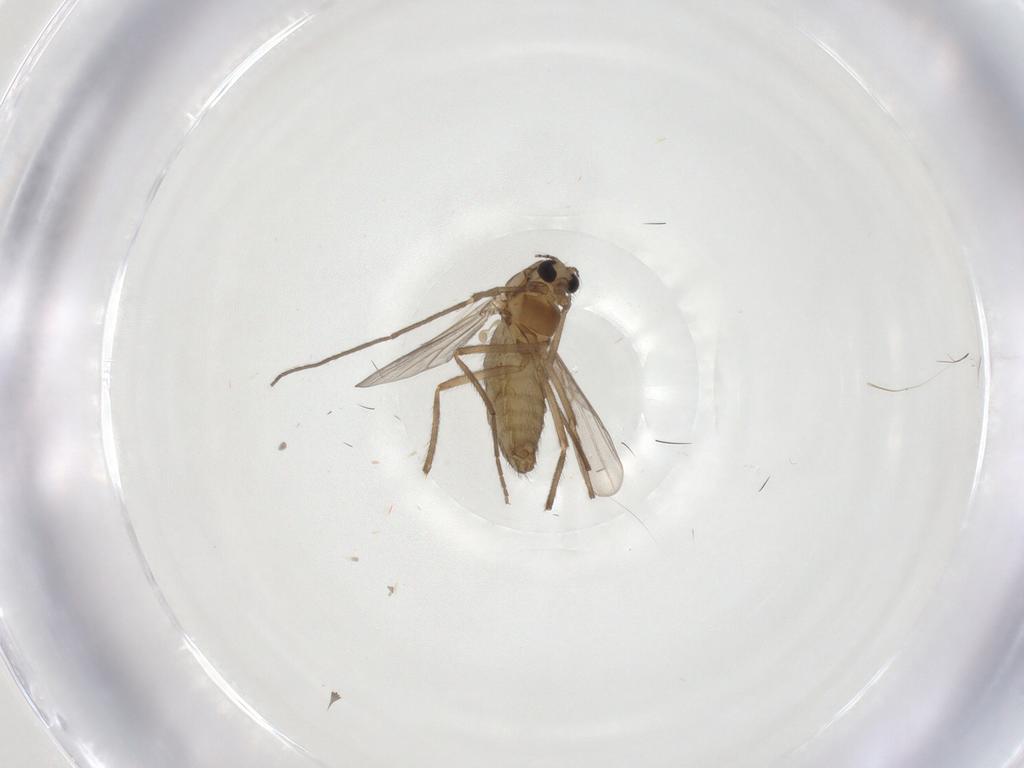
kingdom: Animalia
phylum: Arthropoda
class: Insecta
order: Diptera
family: Chironomidae
